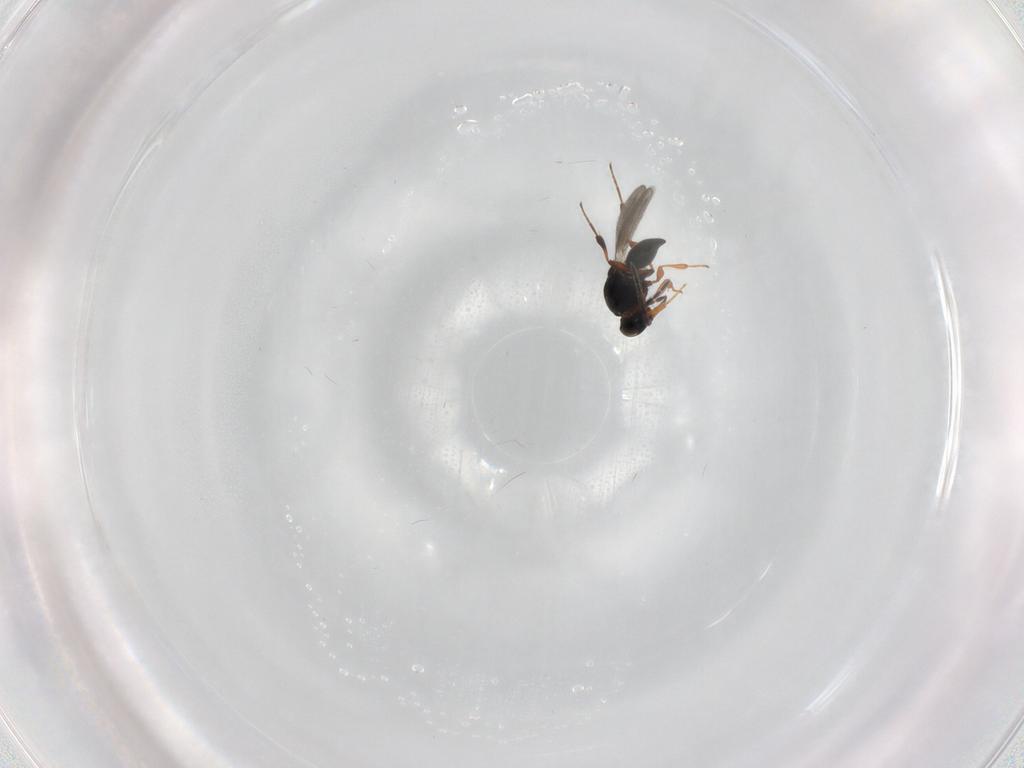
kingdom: Animalia
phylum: Arthropoda
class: Insecta
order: Hymenoptera
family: Platygastridae
